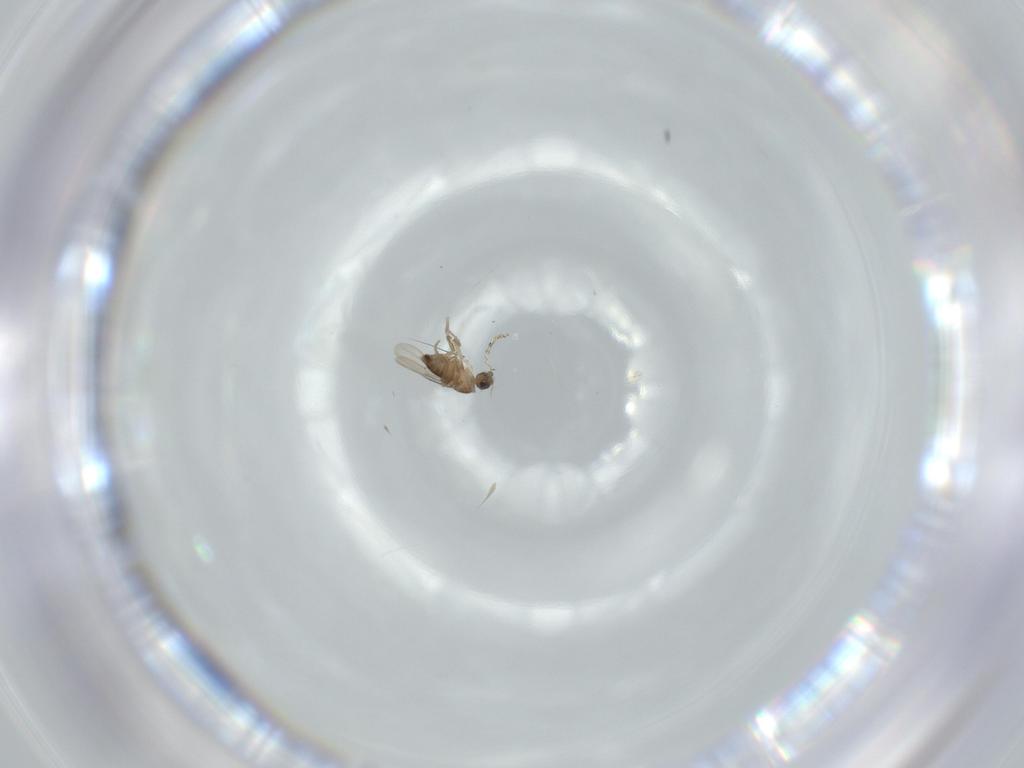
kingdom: Animalia
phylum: Arthropoda
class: Insecta
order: Diptera
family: Phoridae
